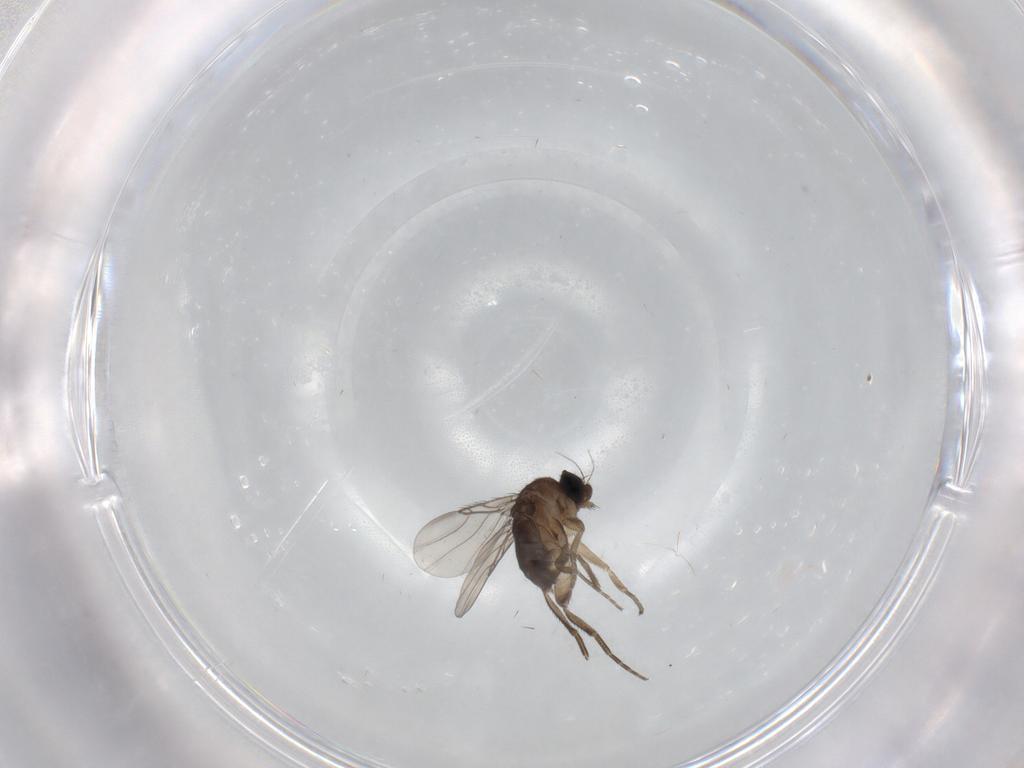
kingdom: Animalia
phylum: Arthropoda
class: Insecta
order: Diptera
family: Phoridae
